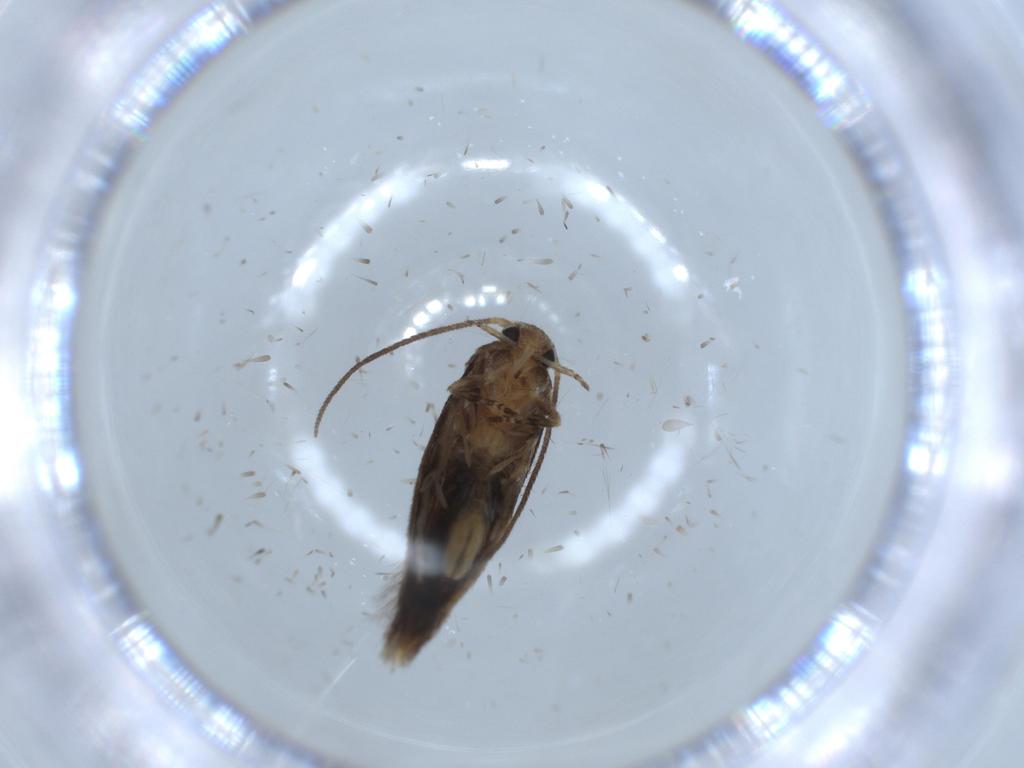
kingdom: Animalia
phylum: Arthropoda
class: Insecta
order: Lepidoptera
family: Elachistidae
